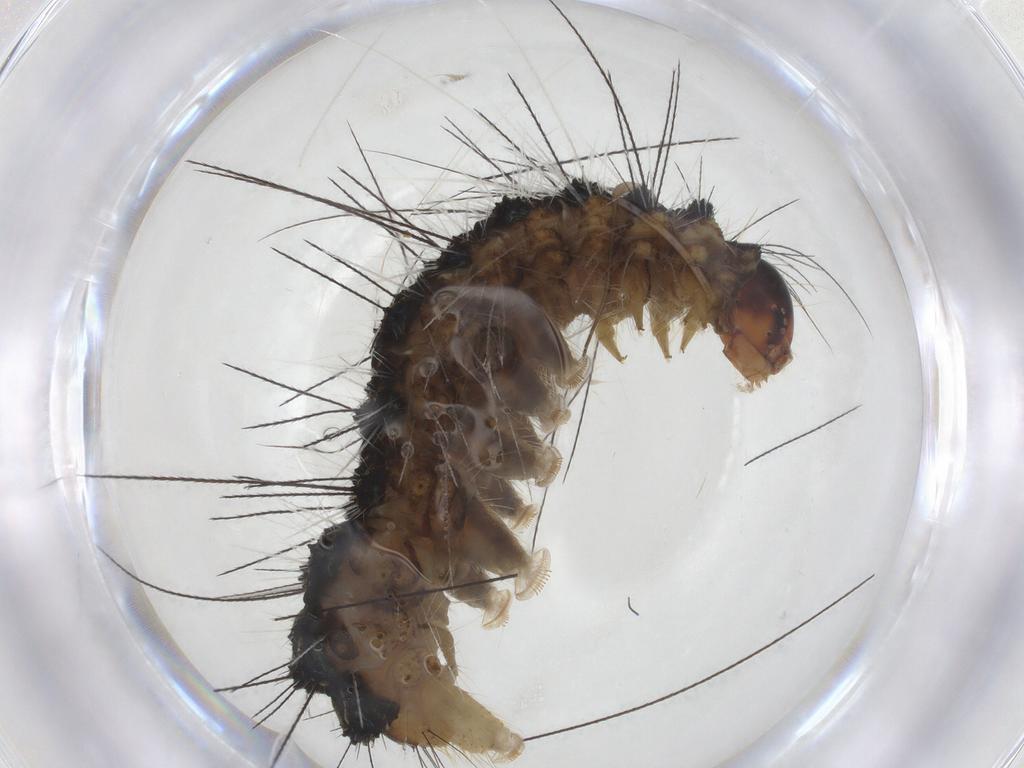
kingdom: Animalia
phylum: Arthropoda
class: Insecta
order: Lepidoptera
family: Erebidae
